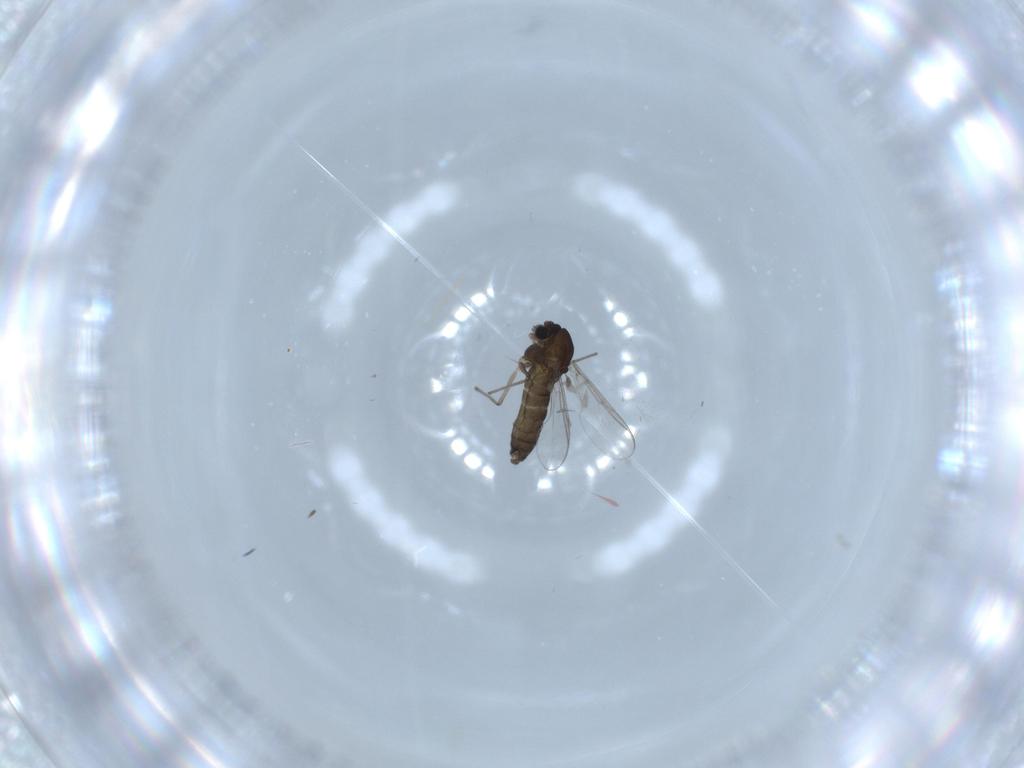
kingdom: Animalia
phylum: Arthropoda
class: Insecta
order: Diptera
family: Chironomidae
